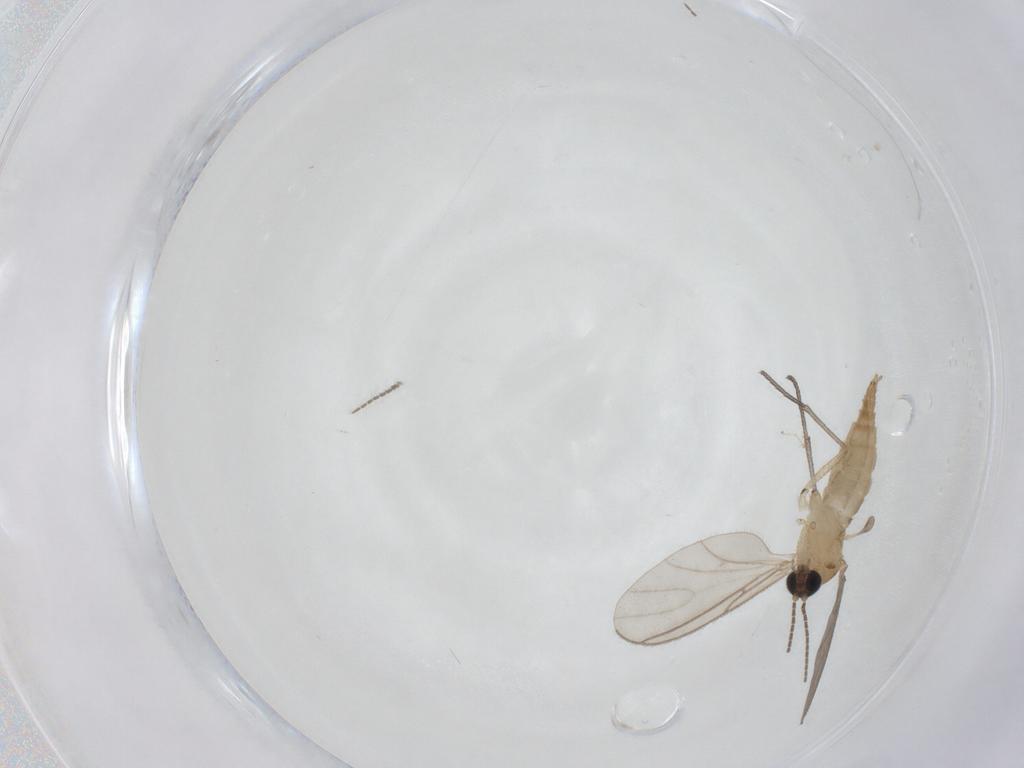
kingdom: Animalia
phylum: Arthropoda
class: Insecta
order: Diptera
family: Sciaridae
